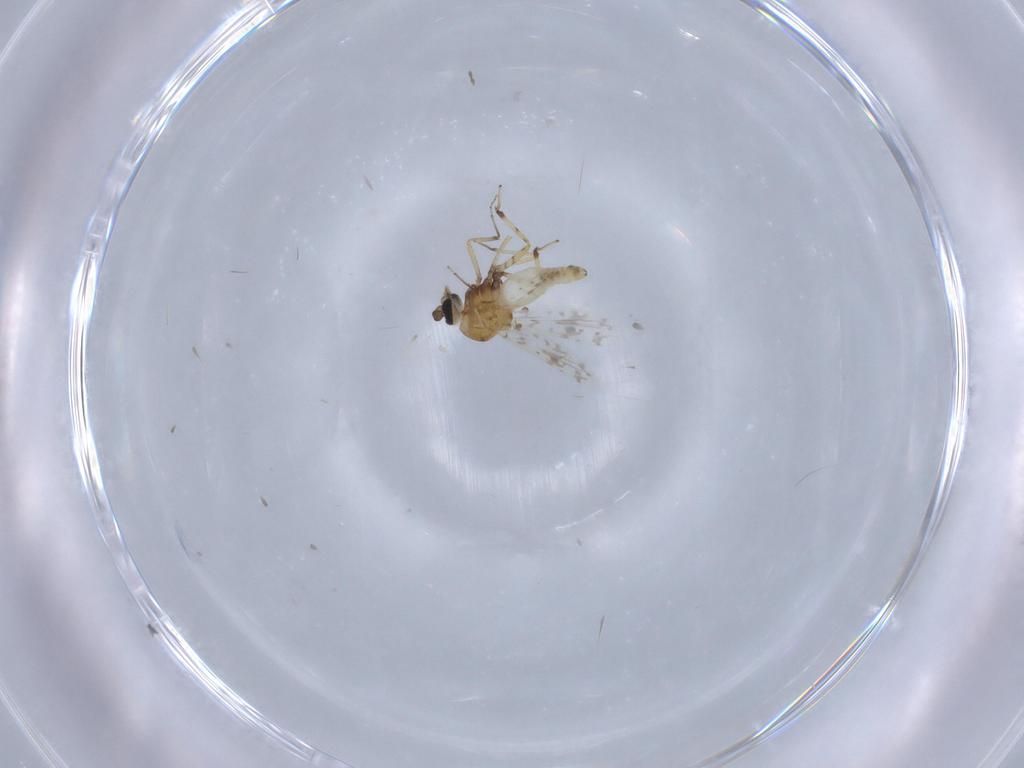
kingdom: Animalia
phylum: Arthropoda
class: Insecta
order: Diptera
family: Ceratopogonidae
